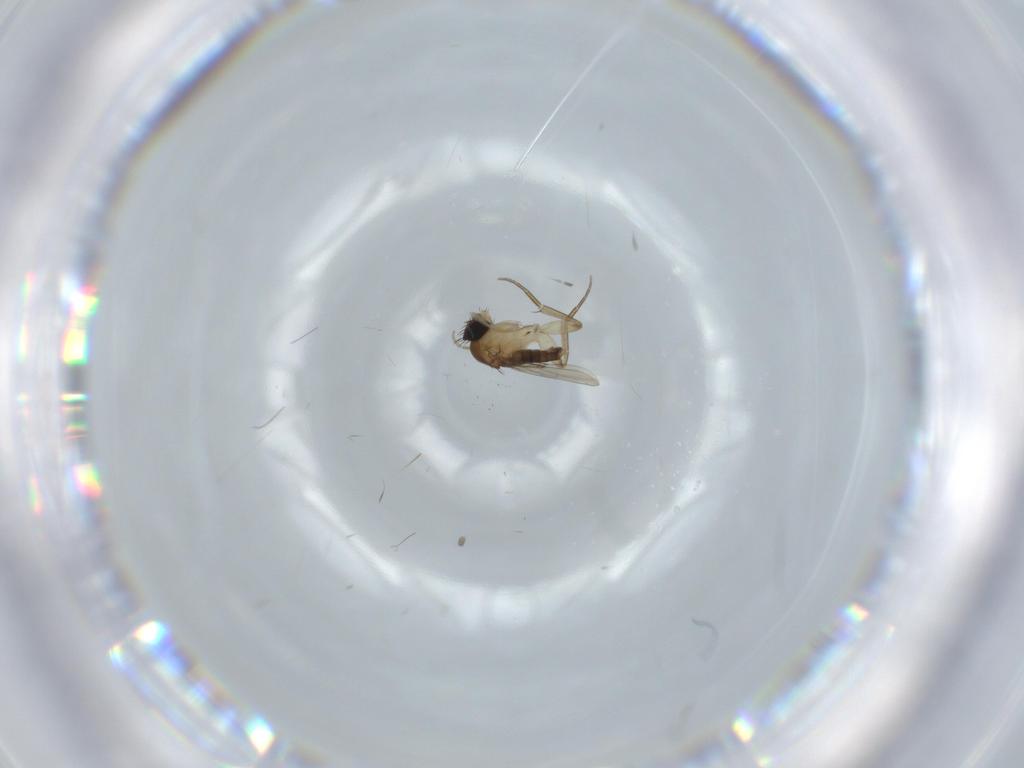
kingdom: Animalia
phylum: Arthropoda
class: Insecta
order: Diptera
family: Phoridae
